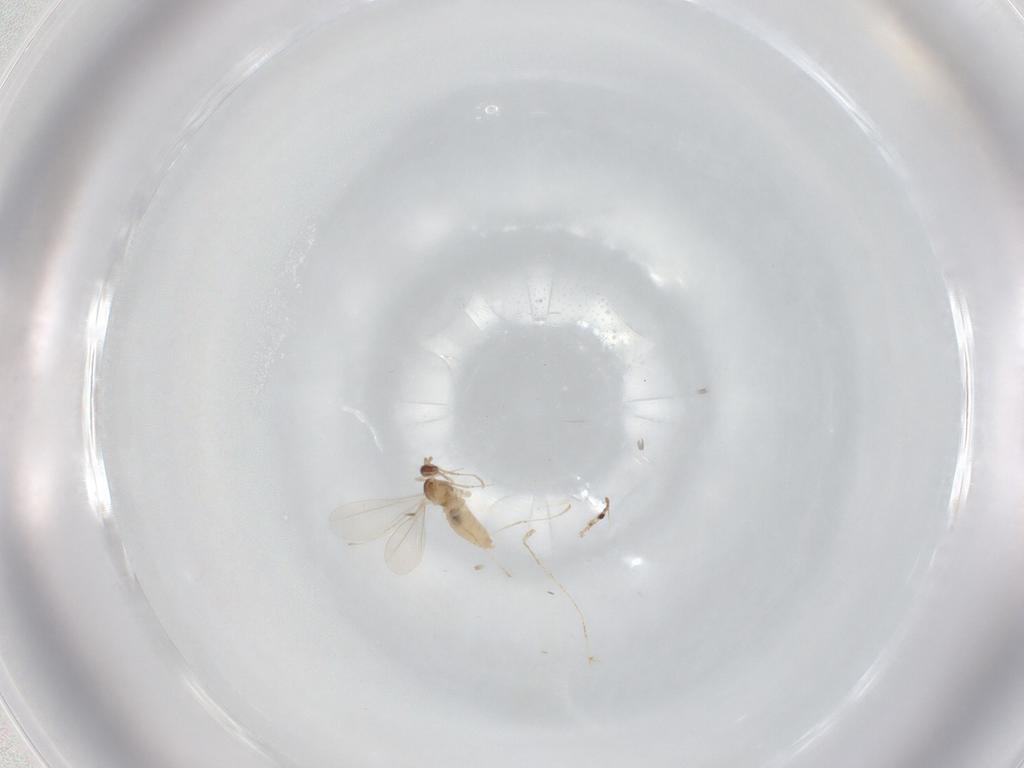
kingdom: Animalia
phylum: Arthropoda
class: Insecta
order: Diptera
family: Cecidomyiidae
